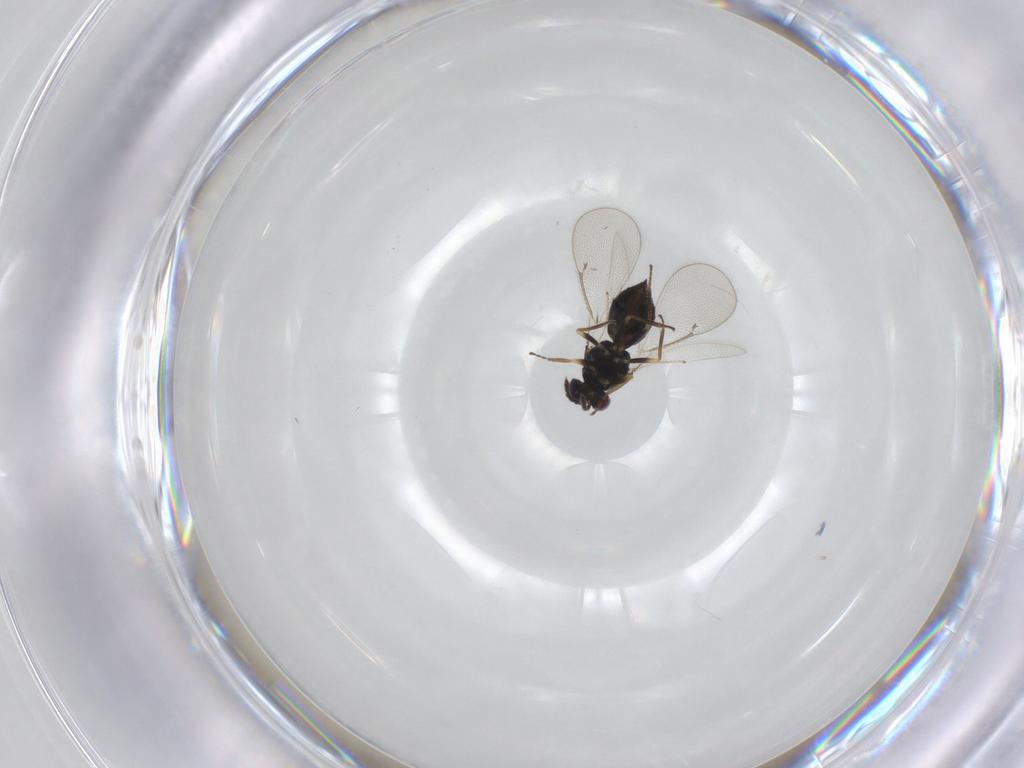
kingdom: Animalia
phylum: Arthropoda
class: Insecta
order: Hymenoptera
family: Eulophidae
